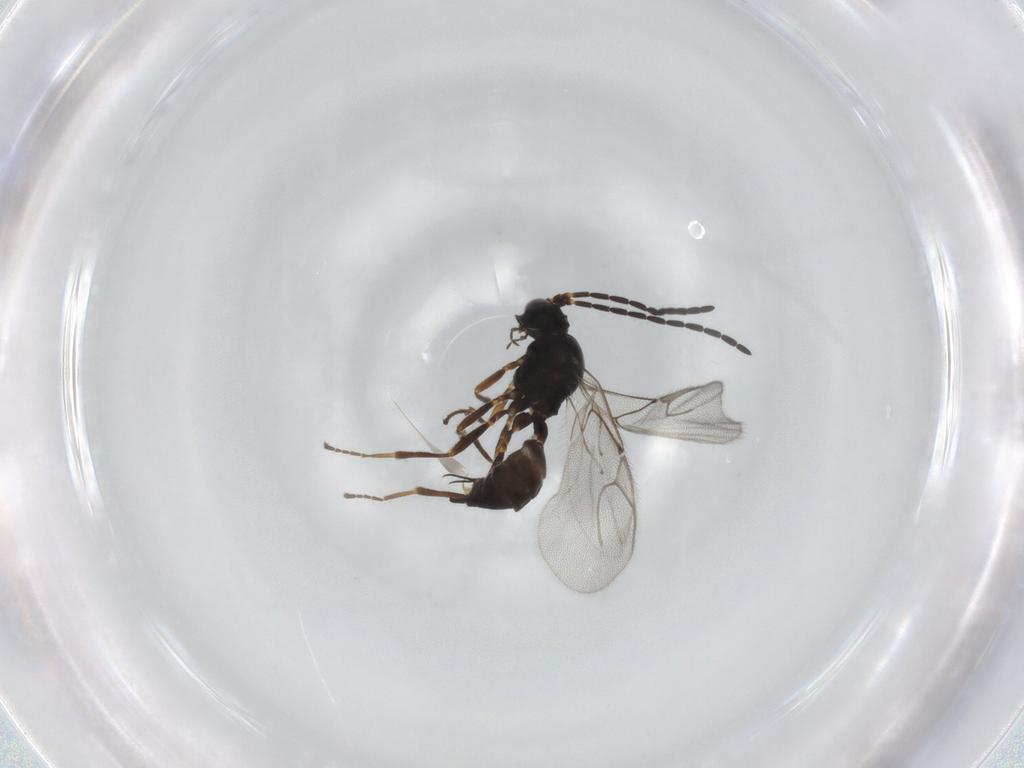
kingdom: Animalia
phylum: Arthropoda
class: Insecta
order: Hymenoptera
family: Braconidae
